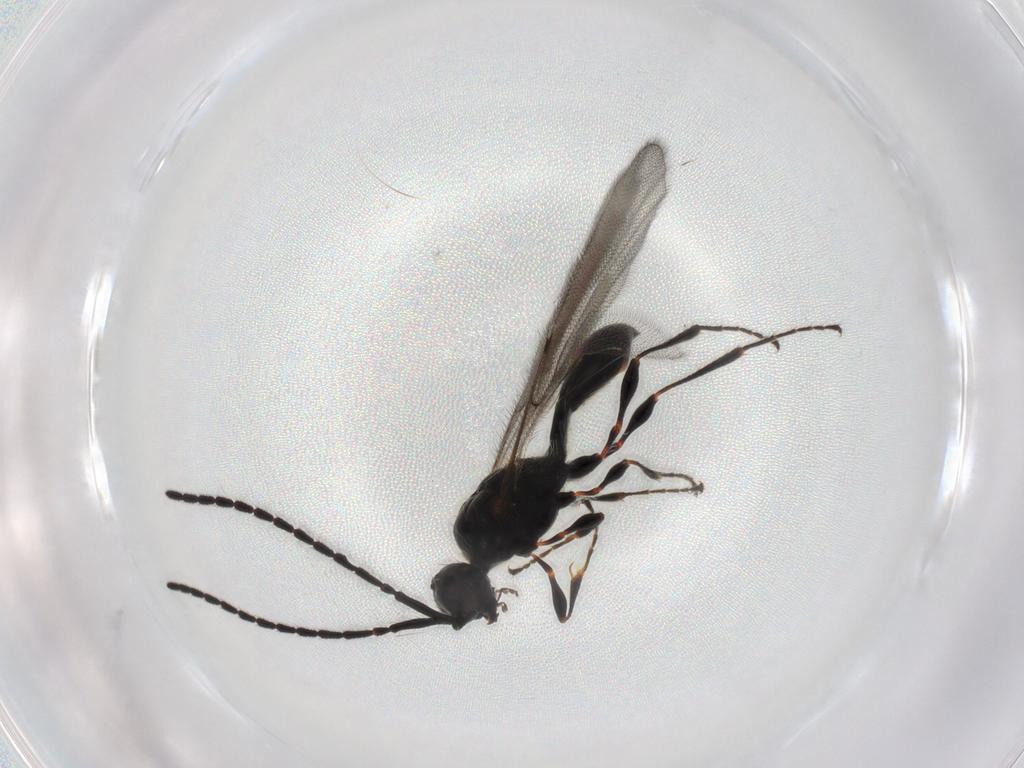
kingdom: Animalia
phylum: Arthropoda
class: Insecta
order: Hymenoptera
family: Diapriidae
